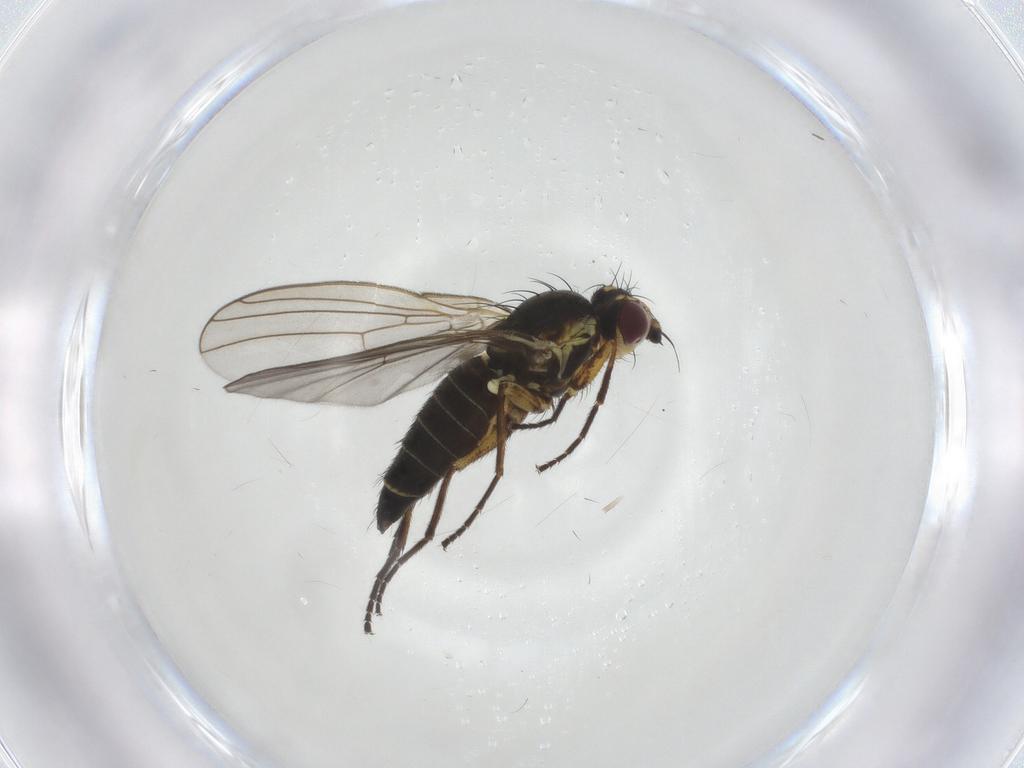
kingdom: Animalia
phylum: Arthropoda
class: Insecta
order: Diptera
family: Agromyzidae
